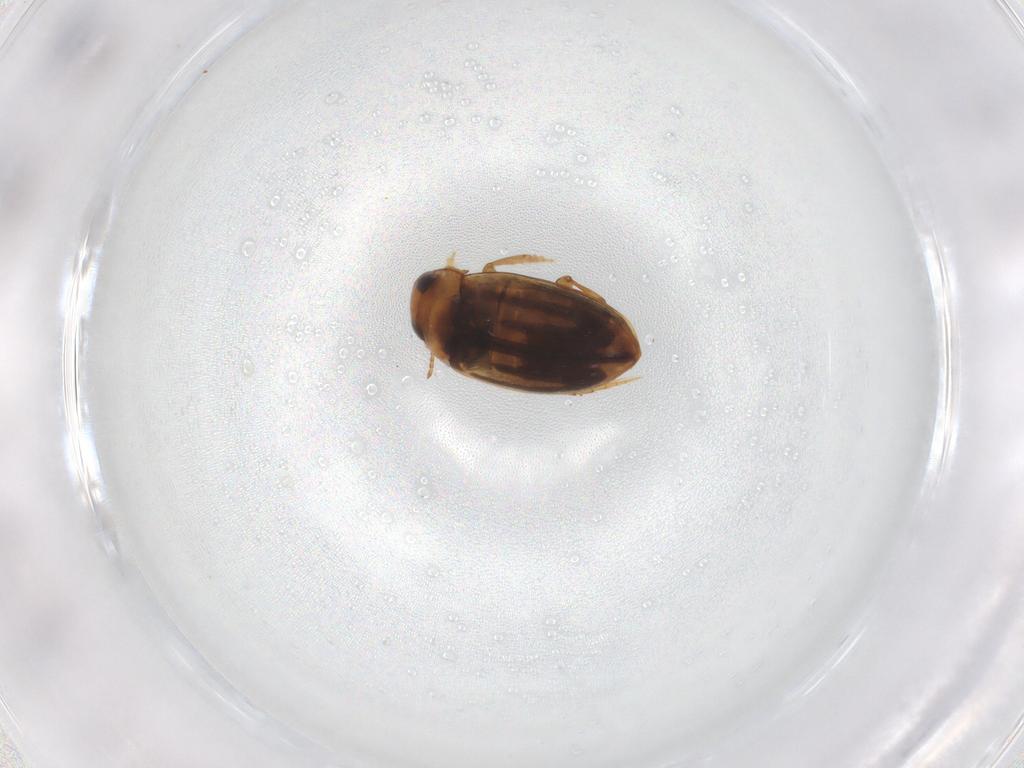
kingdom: Animalia
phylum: Arthropoda
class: Insecta
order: Coleoptera
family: Dytiscidae
